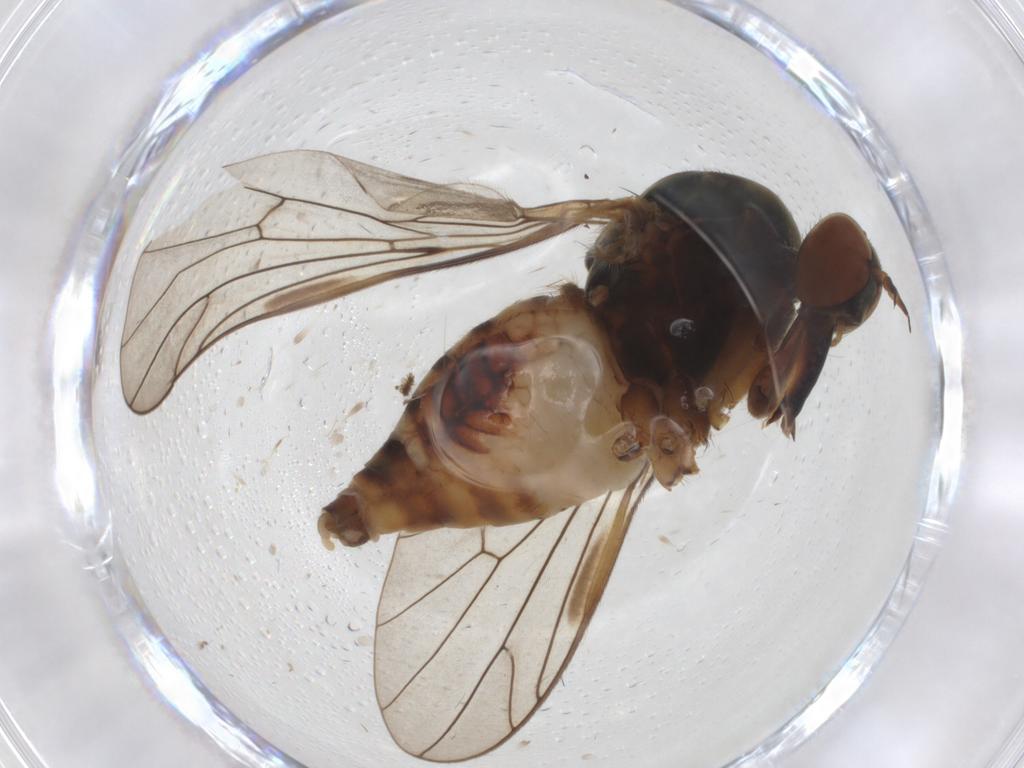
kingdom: Animalia
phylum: Arthropoda
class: Insecta
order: Diptera
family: Empididae
